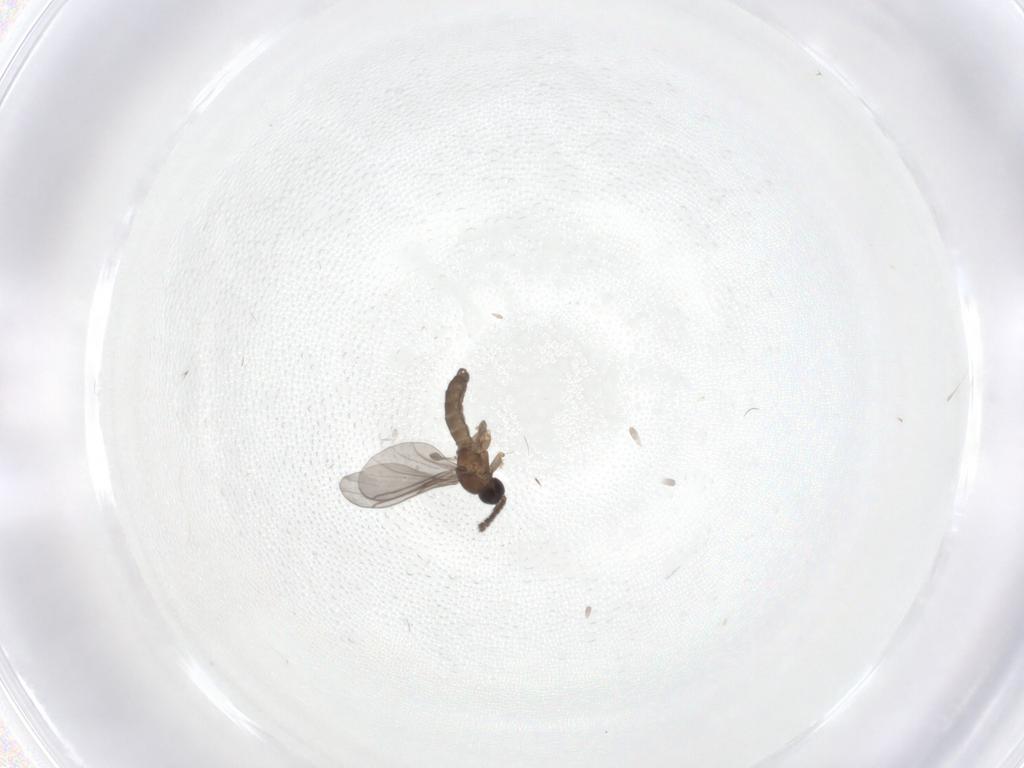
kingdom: Animalia
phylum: Arthropoda
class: Insecta
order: Diptera
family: Sciaridae
